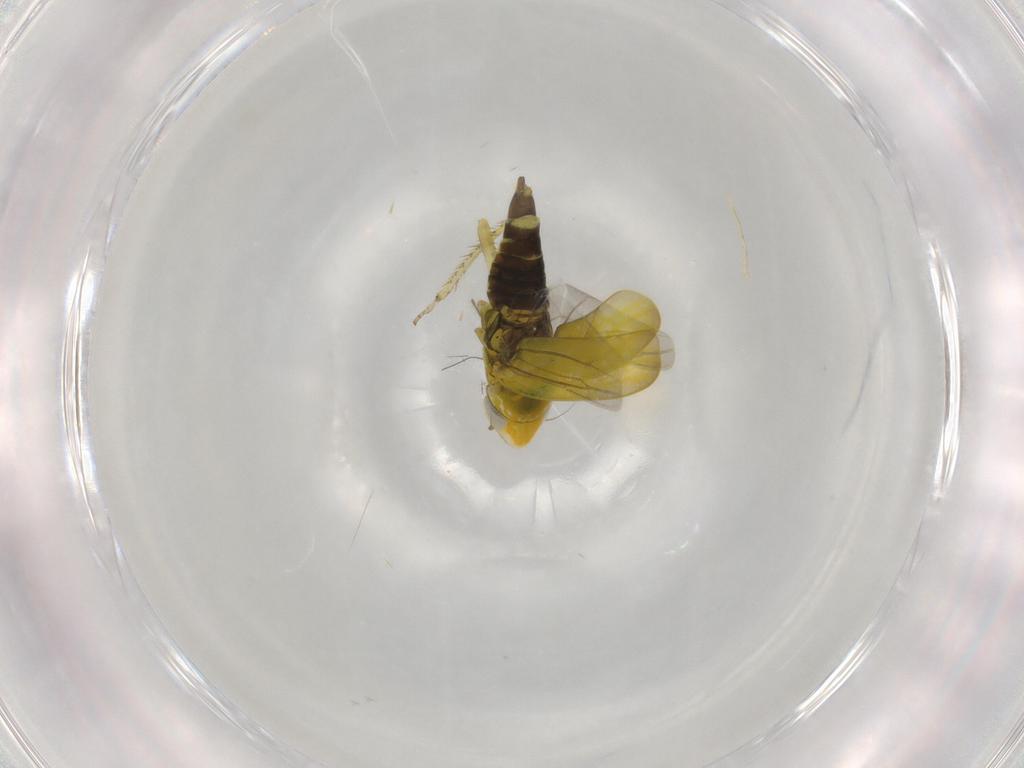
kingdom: Animalia
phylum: Arthropoda
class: Insecta
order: Hemiptera
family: Cicadellidae
